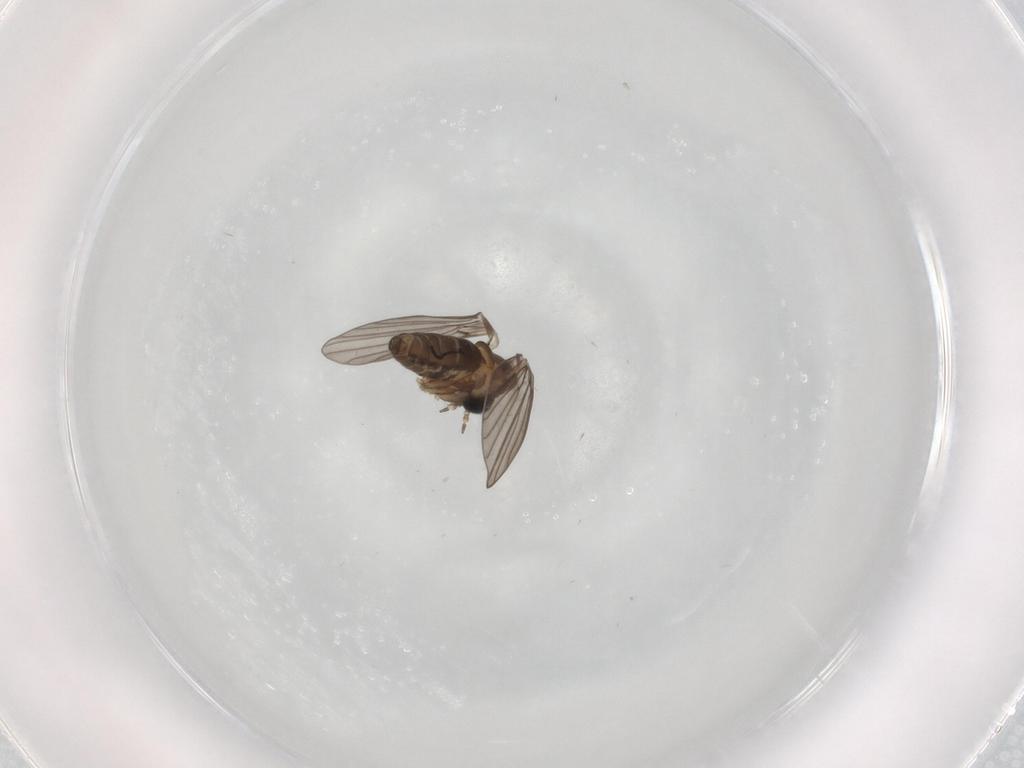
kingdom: Animalia
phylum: Arthropoda
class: Insecta
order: Diptera
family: Psychodidae
